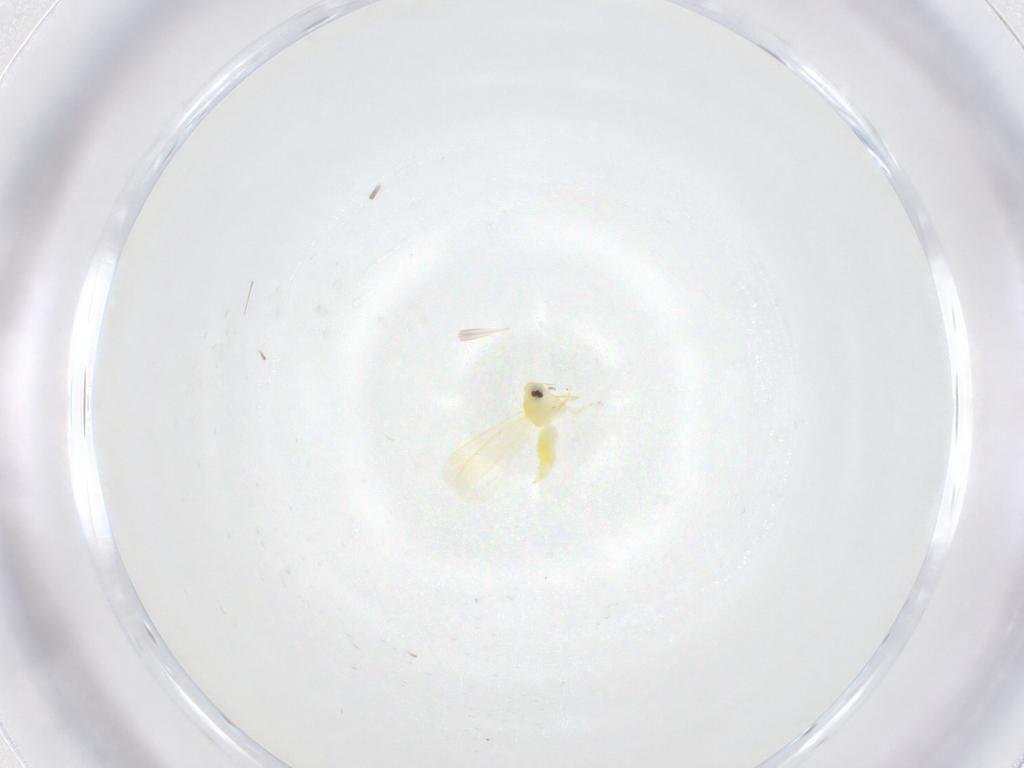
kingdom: Animalia
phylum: Arthropoda
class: Insecta
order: Hemiptera
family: Aleyrodidae
